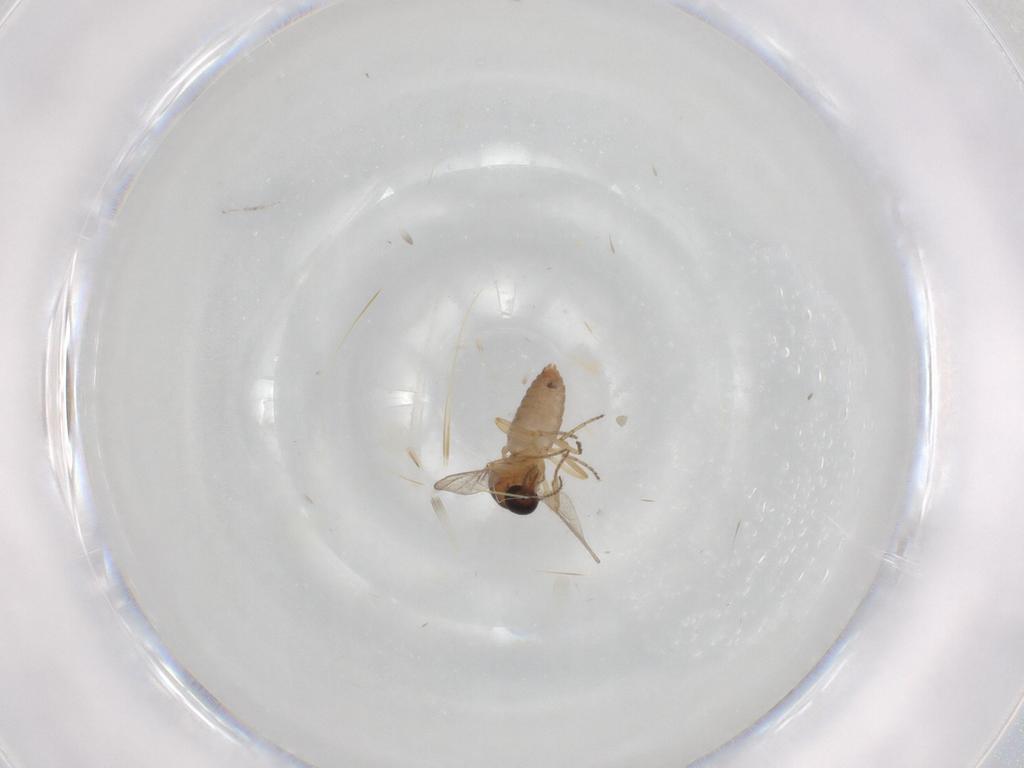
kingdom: Animalia
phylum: Arthropoda
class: Insecta
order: Diptera
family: Ceratopogonidae
